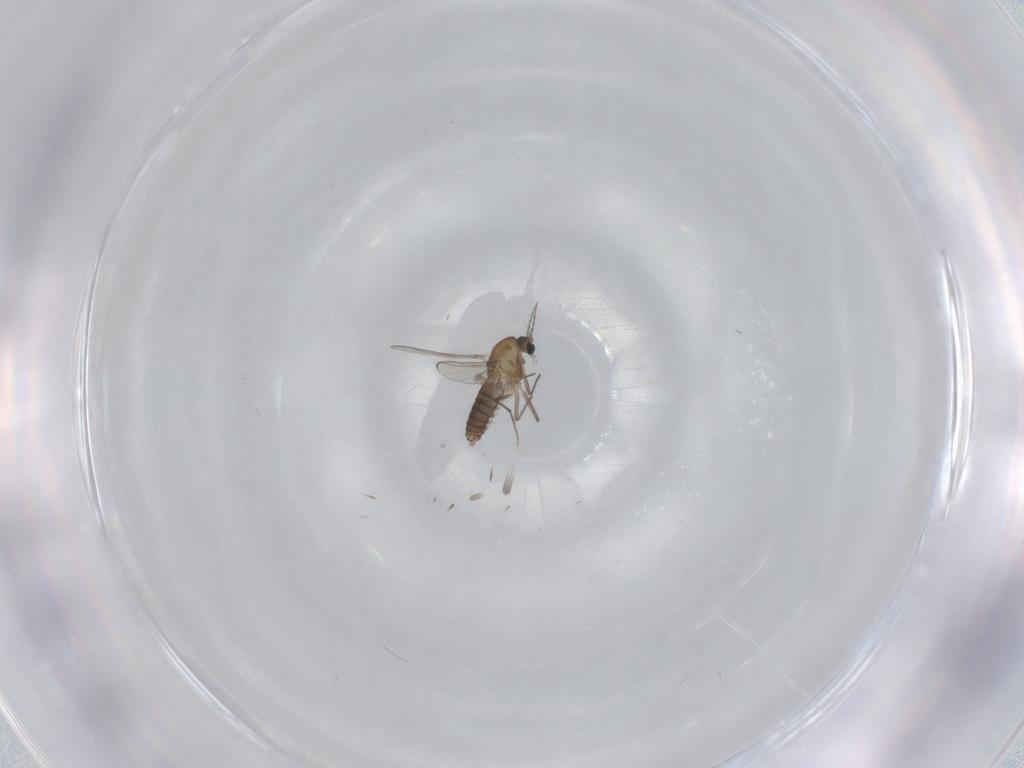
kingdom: Animalia
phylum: Arthropoda
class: Insecta
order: Diptera
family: Chironomidae
